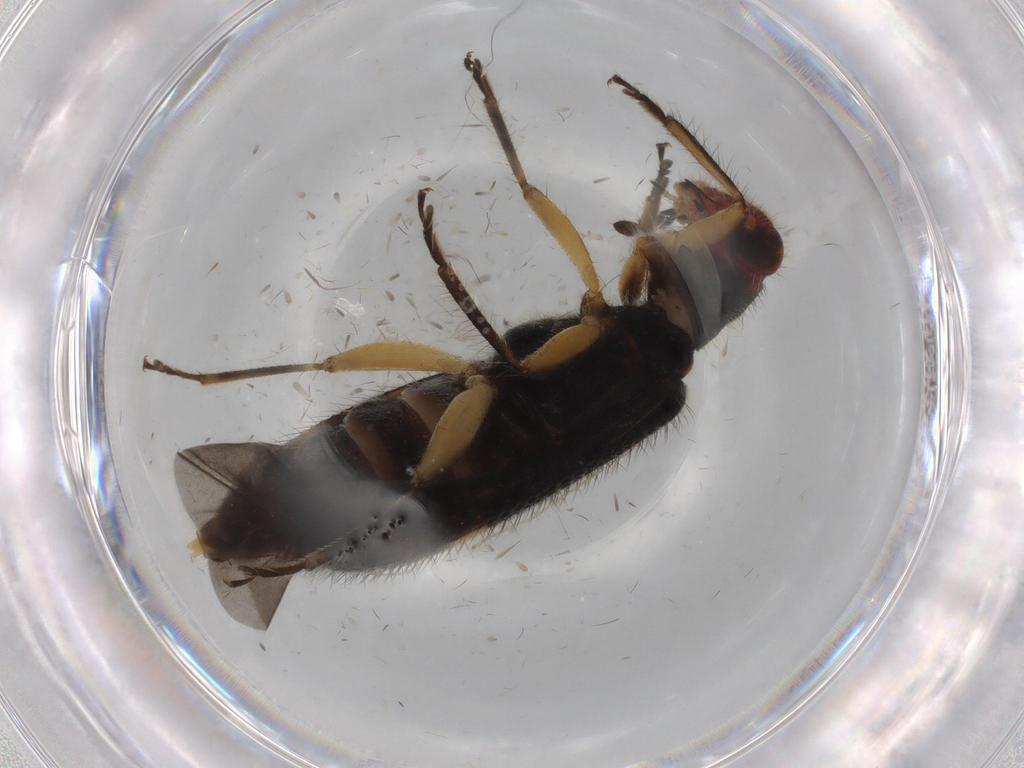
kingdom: Animalia
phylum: Arthropoda
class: Insecta
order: Coleoptera
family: Cleridae
